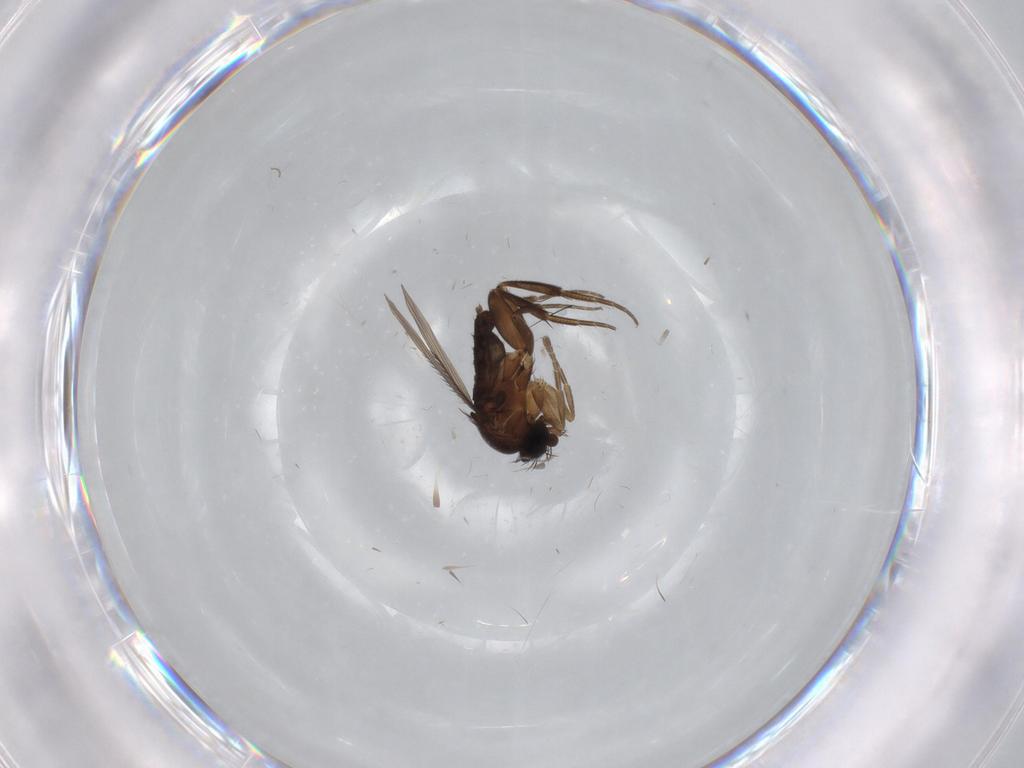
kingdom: Animalia
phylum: Arthropoda
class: Insecta
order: Diptera
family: Phoridae
